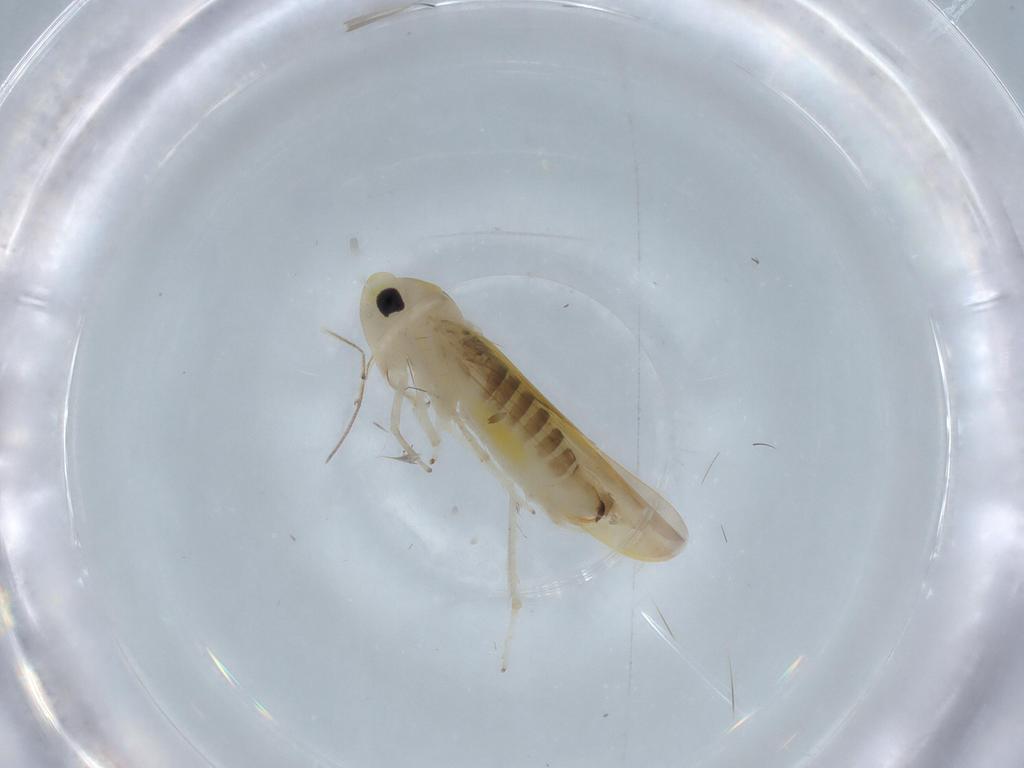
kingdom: Animalia
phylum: Arthropoda
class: Insecta
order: Hemiptera
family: Cicadellidae
